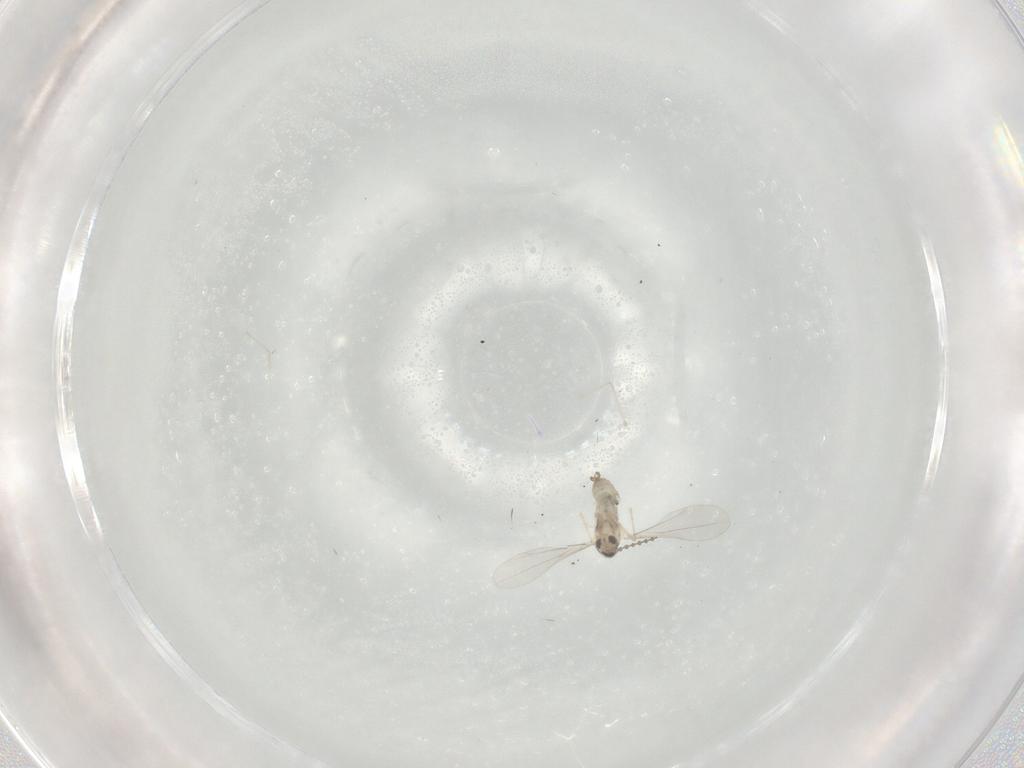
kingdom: Animalia
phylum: Arthropoda
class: Insecta
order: Diptera
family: Cecidomyiidae
